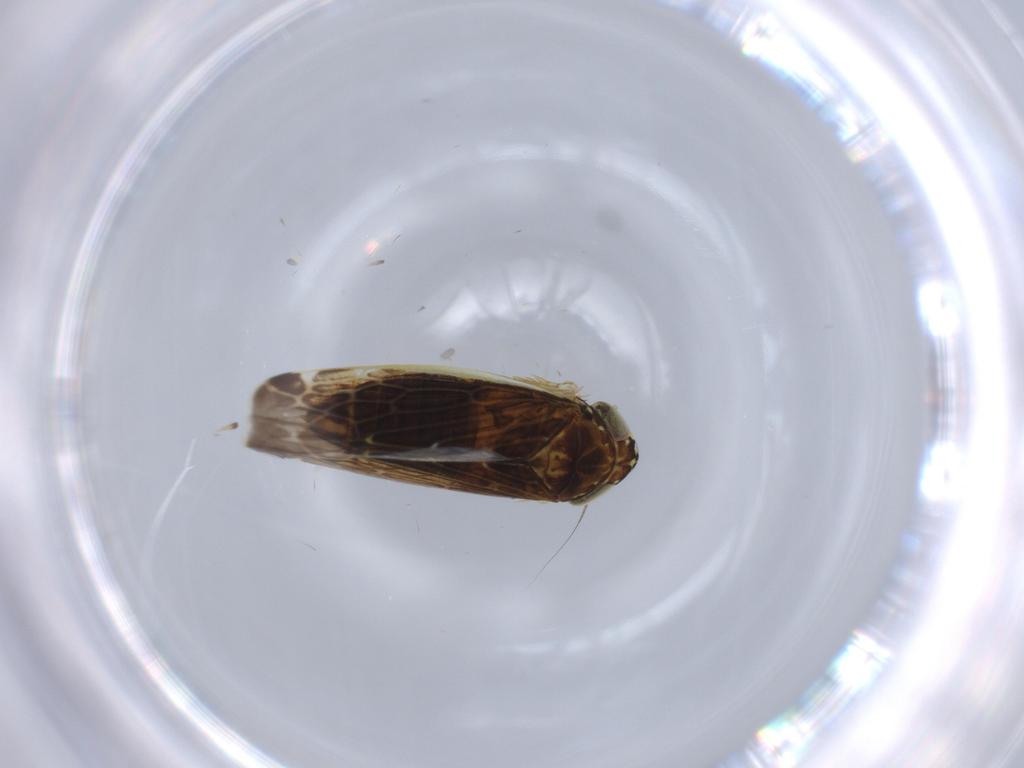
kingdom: Animalia
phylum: Arthropoda
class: Insecta
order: Hemiptera
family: Cicadellidae
